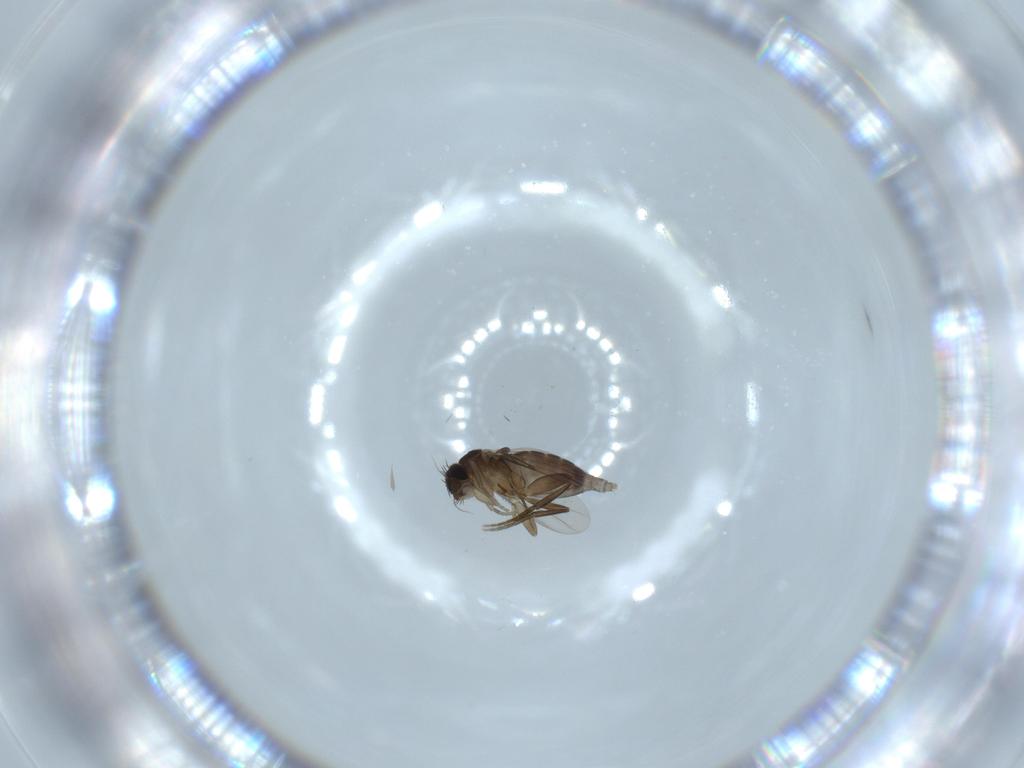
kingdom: Animalia
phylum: Arthropoda
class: Insecta
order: Diptera
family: Phoridae
